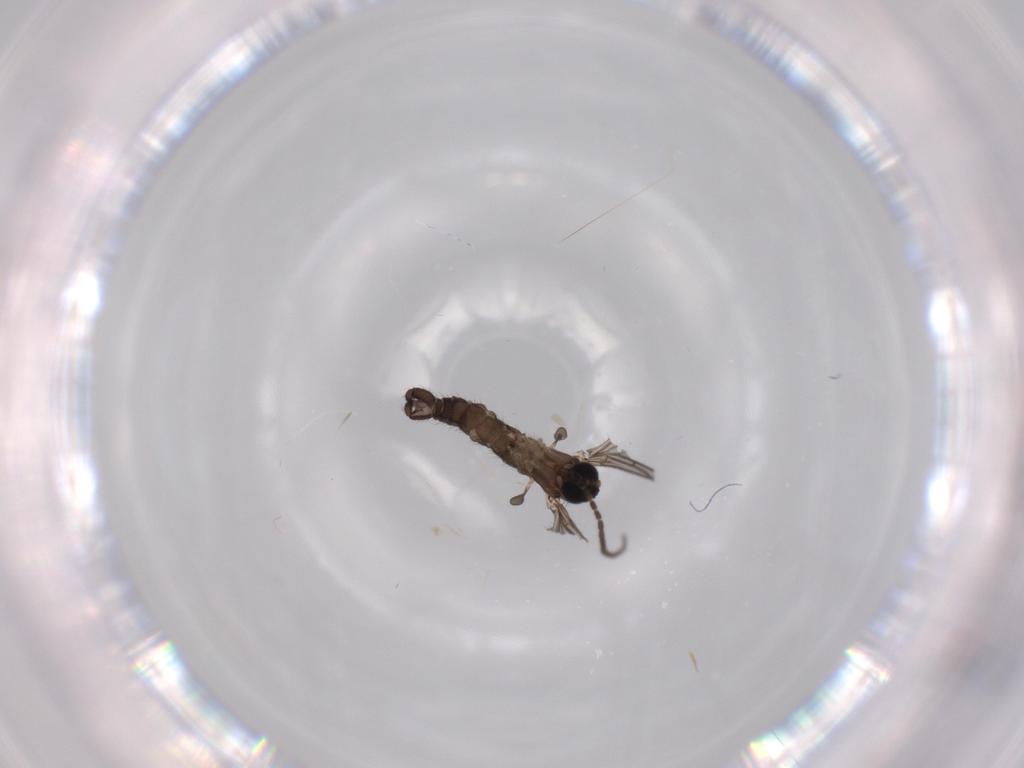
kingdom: Animalia
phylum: Arthropoda
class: Insecta
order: Diptera
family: Sciaridae
